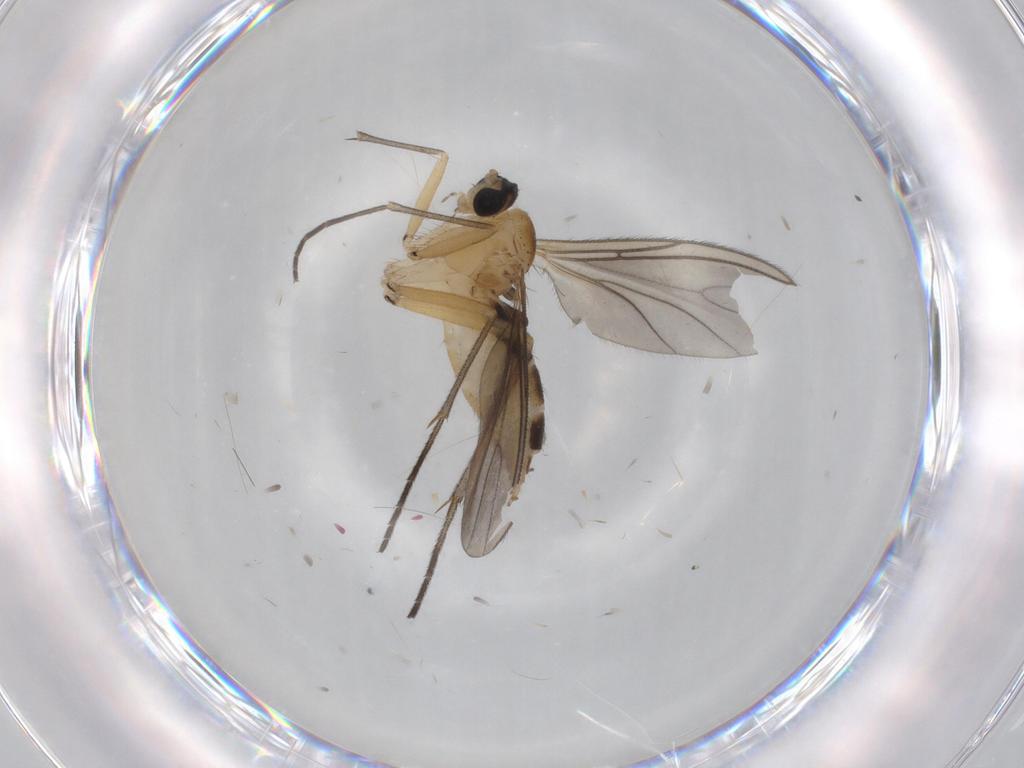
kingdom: Animalia
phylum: Arthropoda
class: Insecta
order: Diptera
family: Sciaridae
